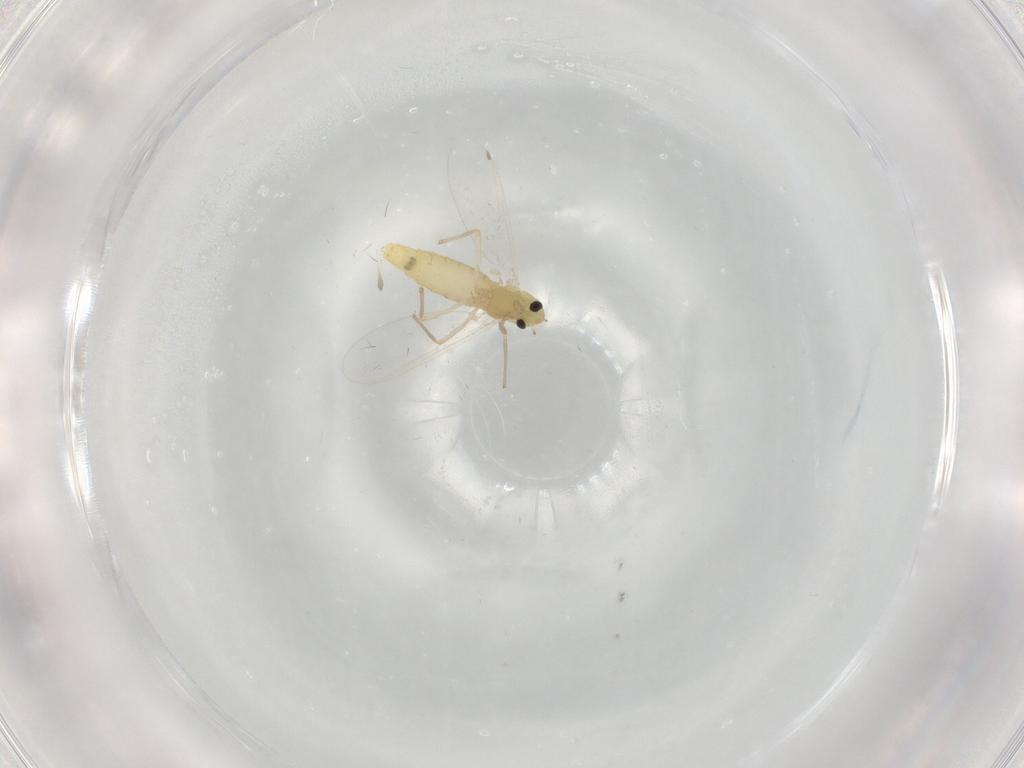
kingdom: Animalia
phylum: Arthropoda
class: Insecta
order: Diptera
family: Chironomidae
